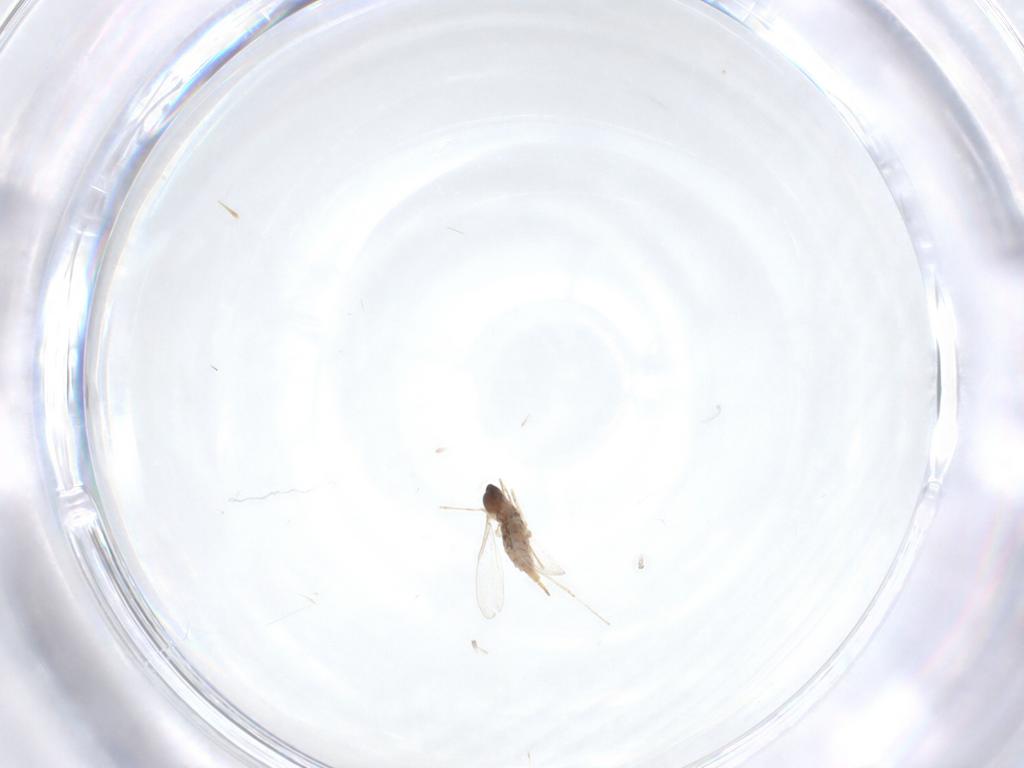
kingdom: Animalia
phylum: Arthropoda
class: Insecta
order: Diptera
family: Cecidomyiidae
